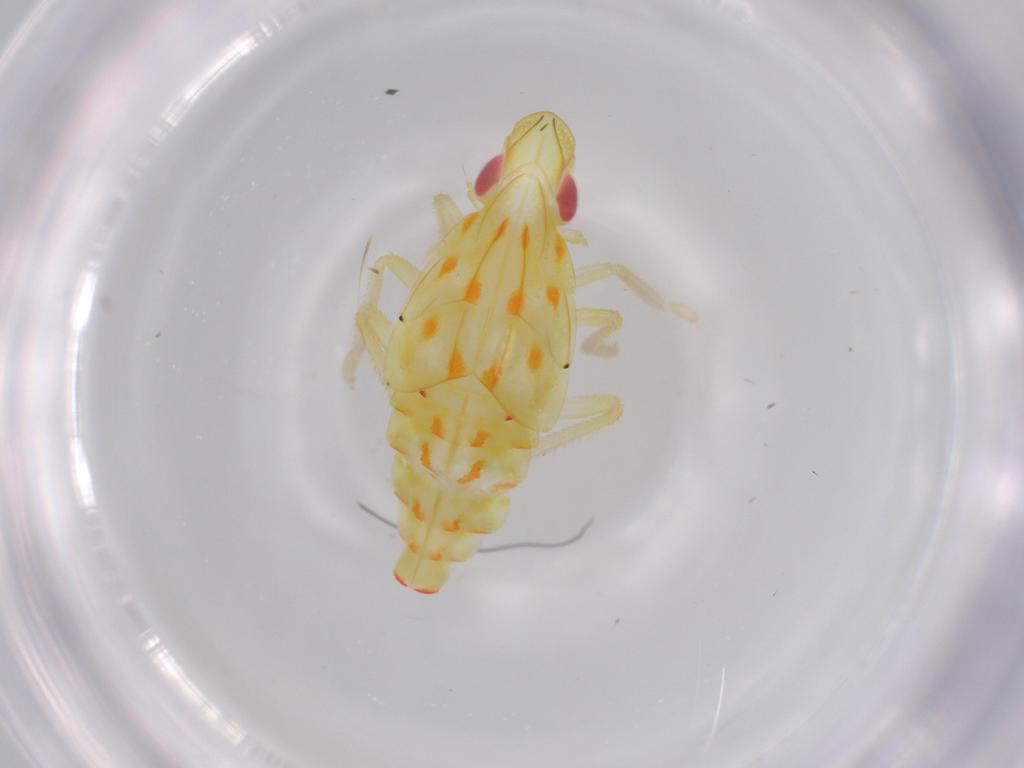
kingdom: Animalia
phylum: Arthropoda
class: Insecta
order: Hemiptera
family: Tropiduchidae
